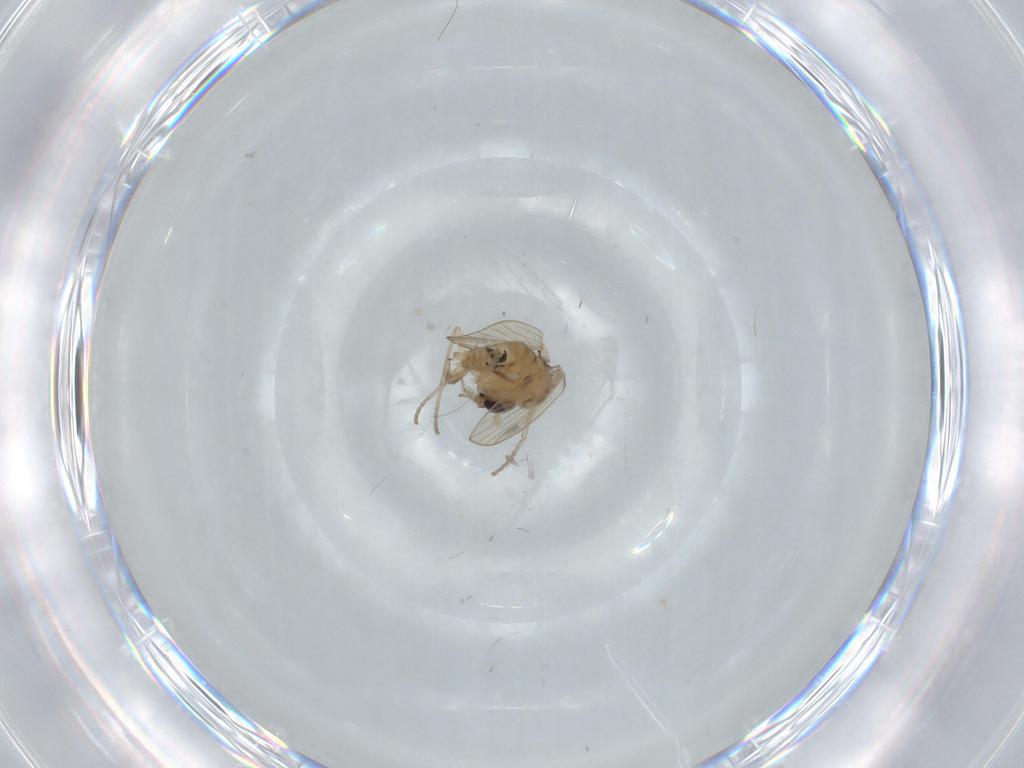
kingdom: Animalia
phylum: Arthropoda
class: Insecta
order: Diptera
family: Psychodidae
